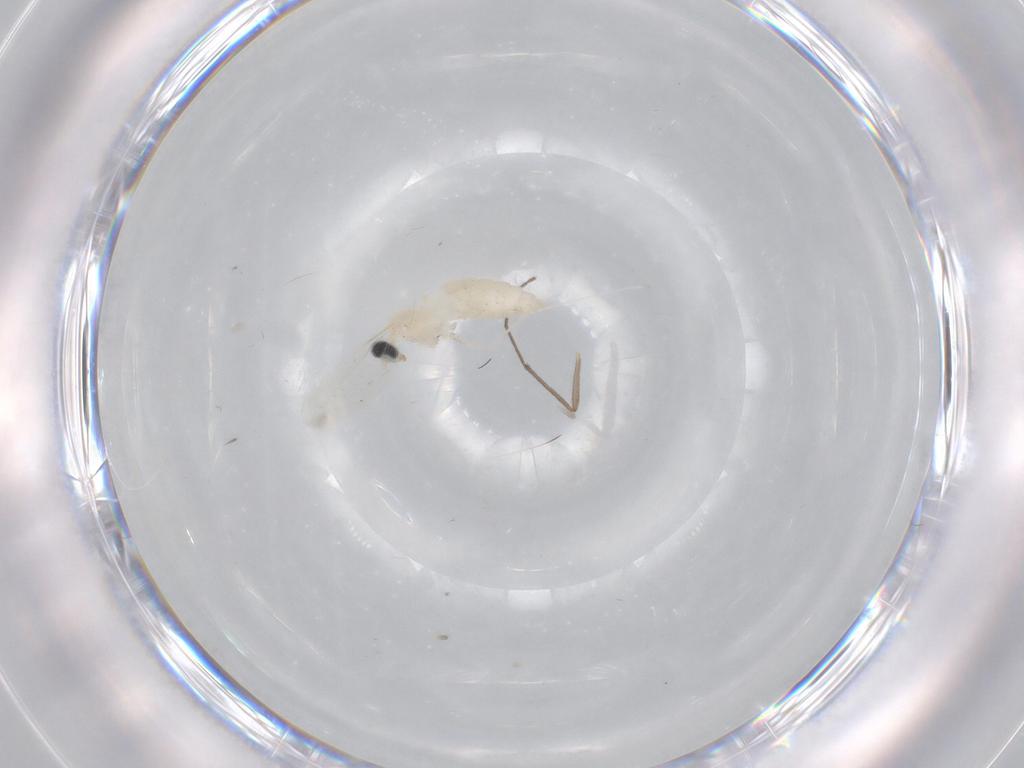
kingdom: Animalia
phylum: Arthropoda
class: Insecta
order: Diptera
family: Cecidomyiidae
